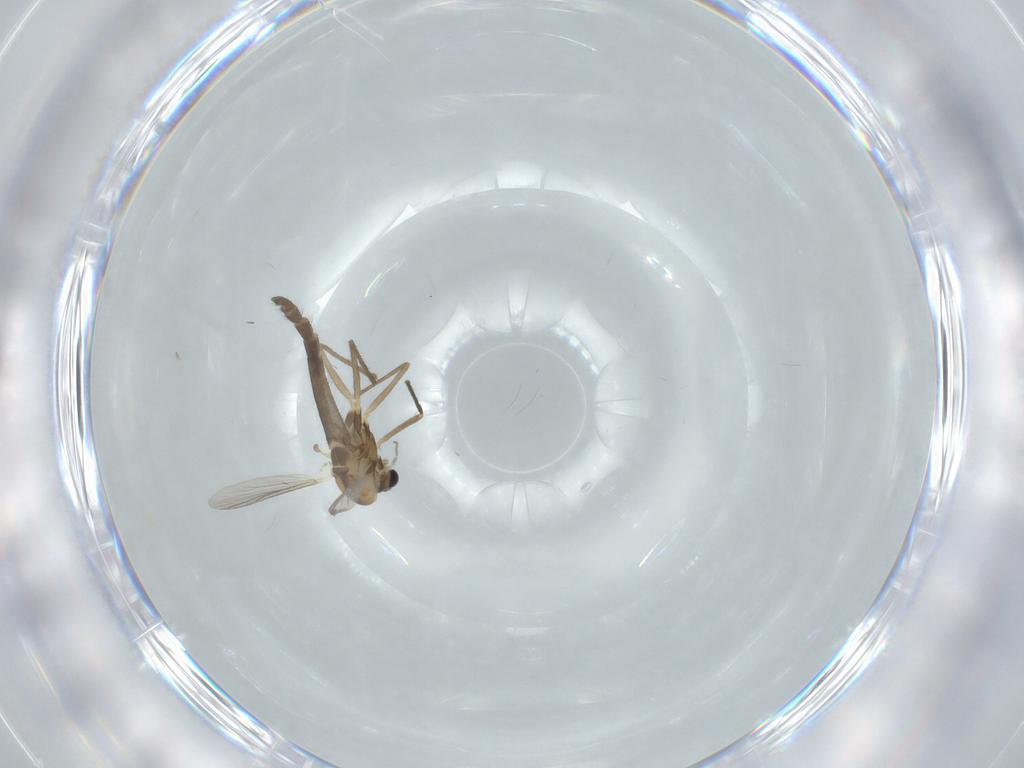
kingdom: Animalia
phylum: Arthropoda
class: Insecta
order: Diptera
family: Chironomidae
